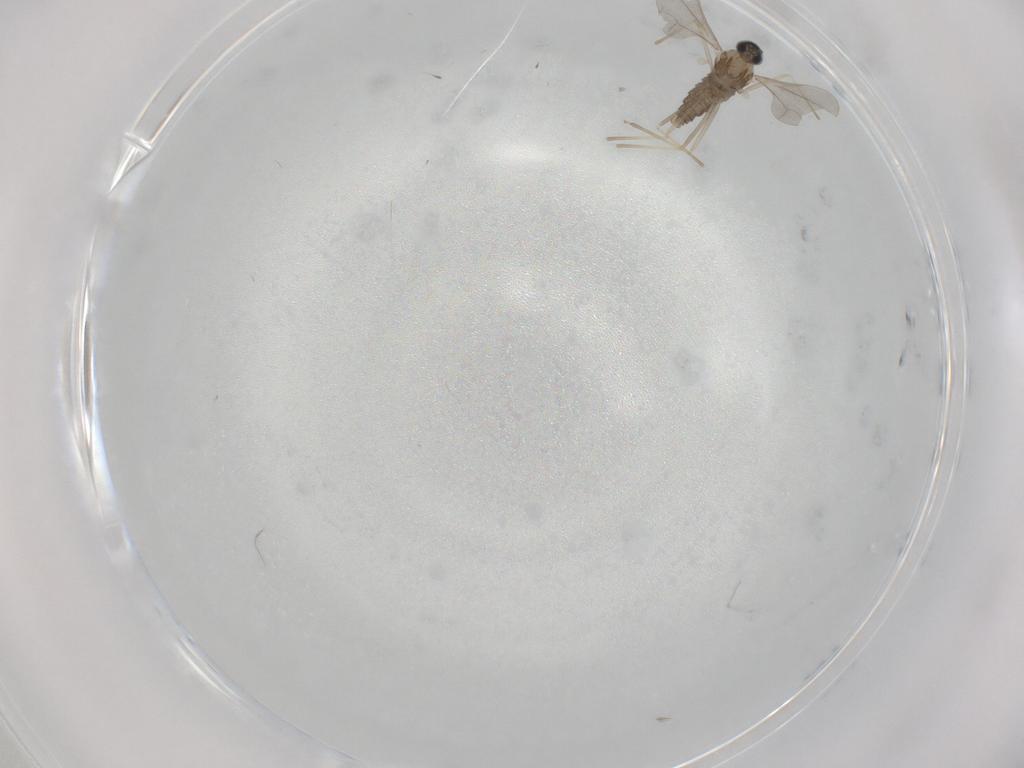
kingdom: Animalia
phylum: Arthropoda
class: Insecta
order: Diptera
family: Cecidomyiidae
